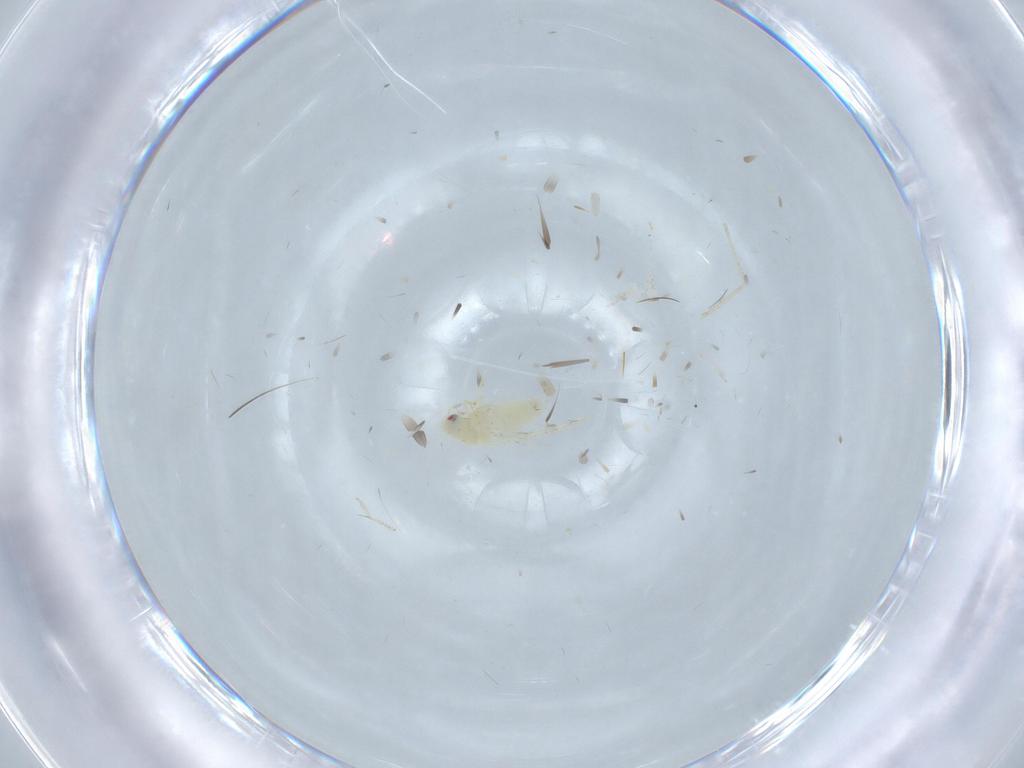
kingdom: Animalia
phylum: Arthropoda
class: Insecta
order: Hemiptera
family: Aleyrodidae
